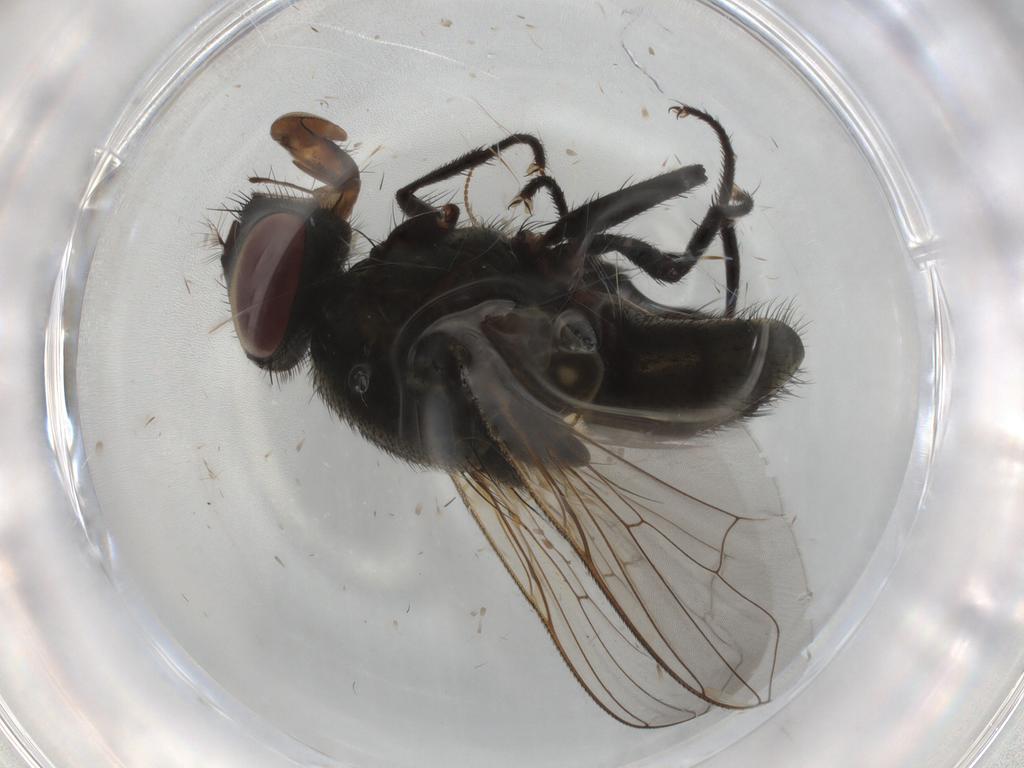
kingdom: Animalia
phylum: Arthropoda
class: Insecta
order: Diptera
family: Muscidae
